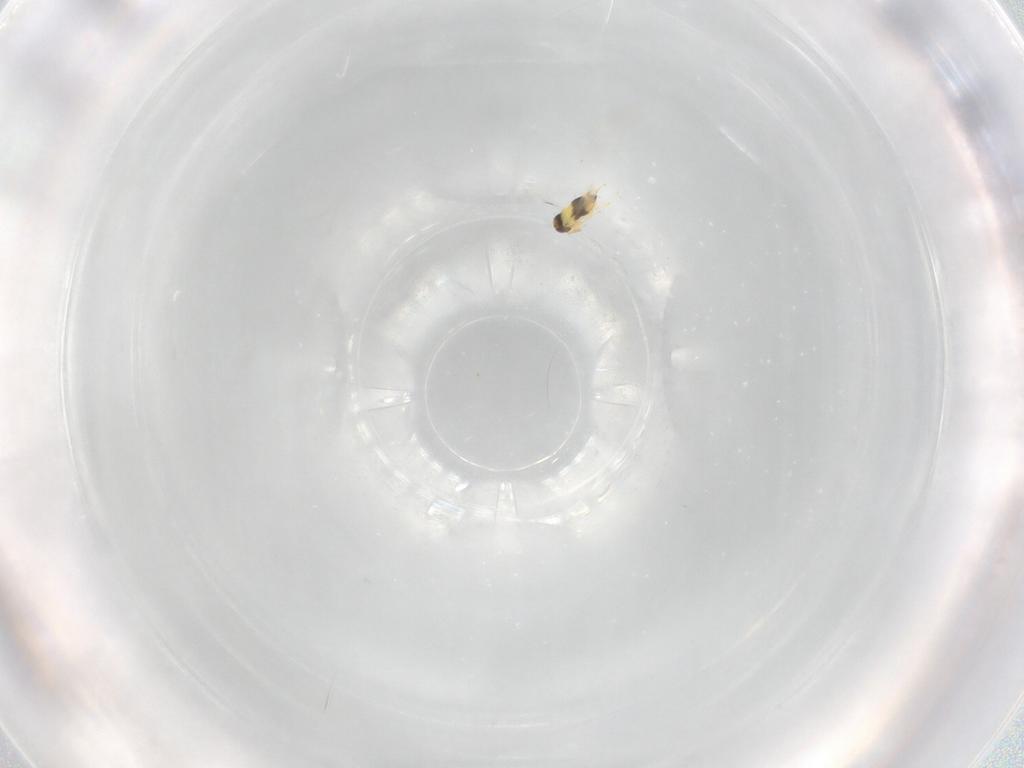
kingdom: Animalia
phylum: Arthropoda
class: Insecta
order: Hymenoptera
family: Signiphoridae
